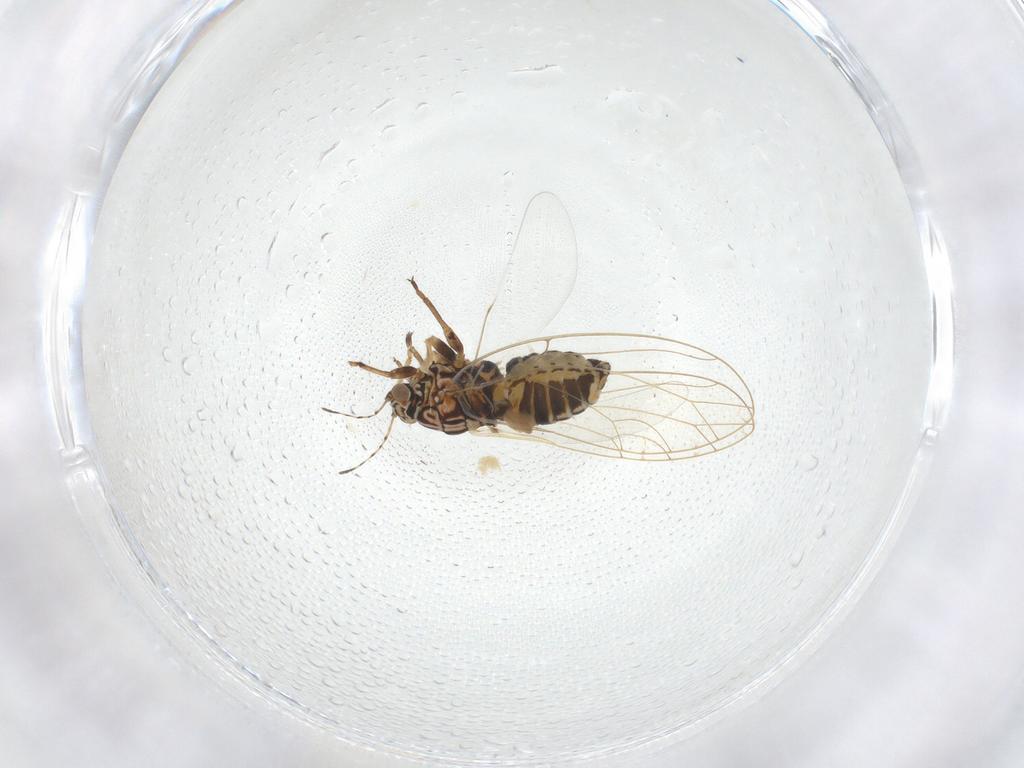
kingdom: Animalia
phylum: Arthropoda
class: Insecta
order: Hemiptera
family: Triozidae
